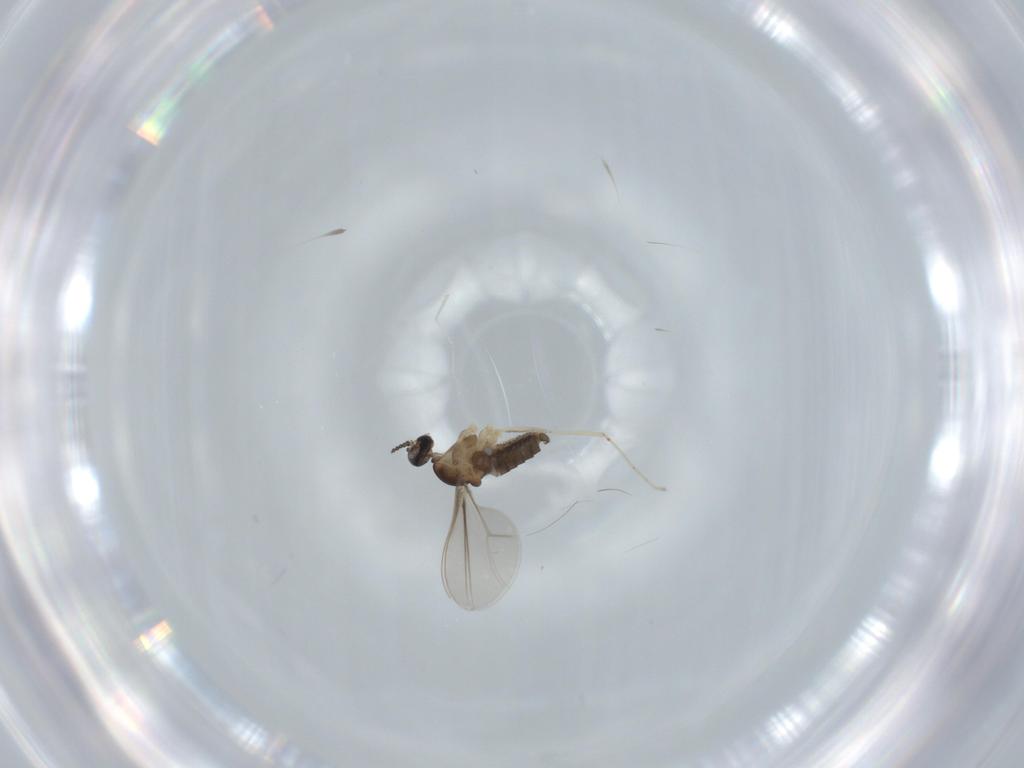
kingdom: Animalia
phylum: Arthropoda
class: Insecta
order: Diptera
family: Cecidomyiidae
